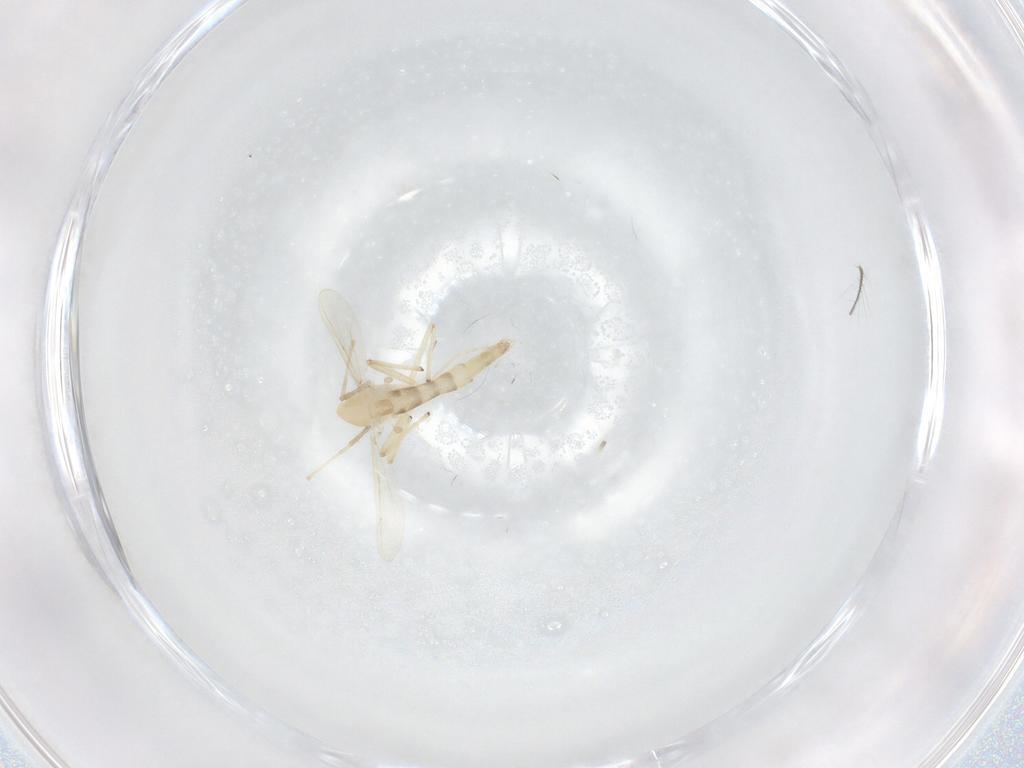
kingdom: Animalia
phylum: Arthropoda
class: Insecta
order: Diptera
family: Chironomidae
